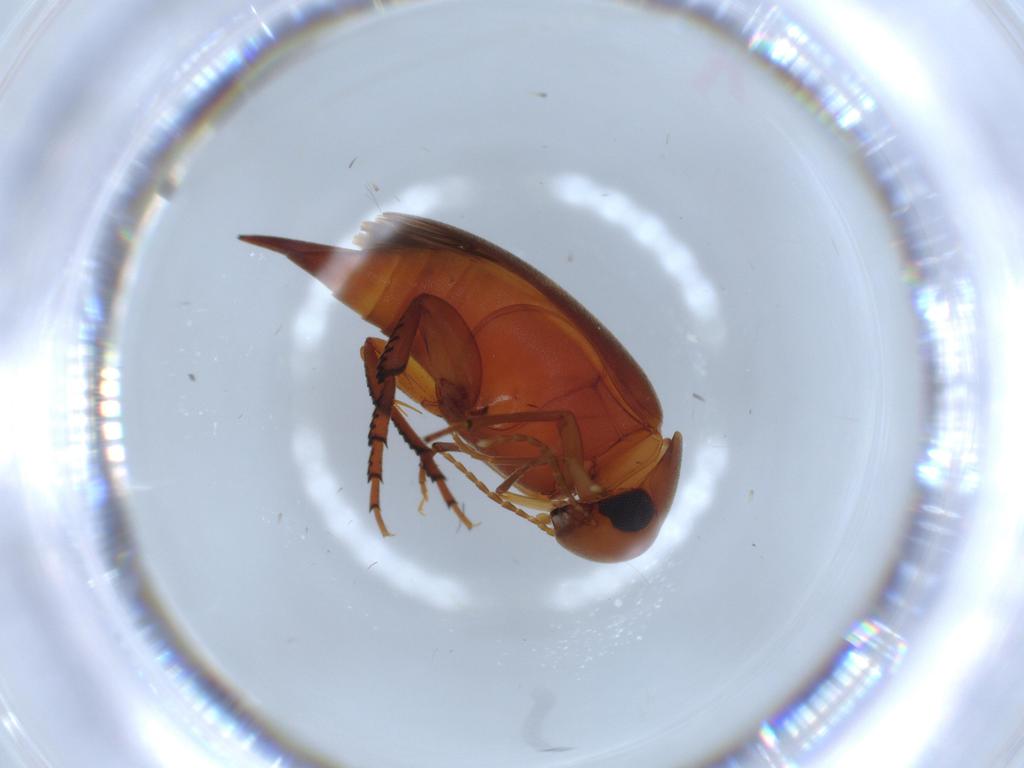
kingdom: Animalia
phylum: Arthropoda
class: Insecta
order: Coleoptera
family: Mordellidae
